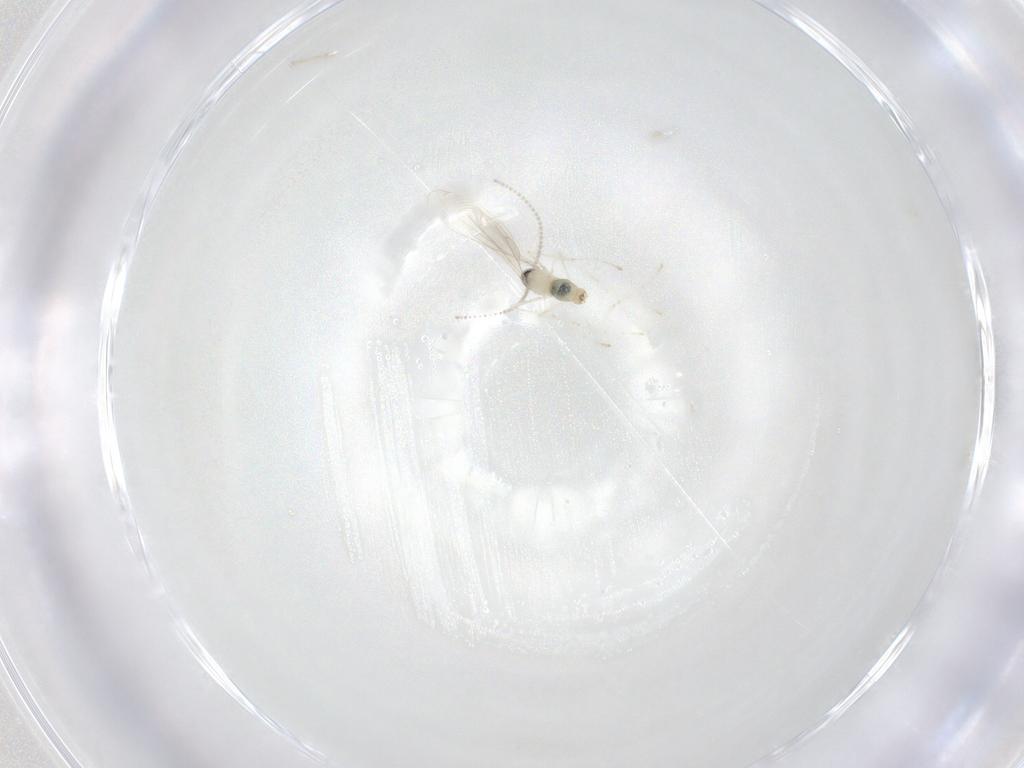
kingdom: Animalia
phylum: Arthropoda
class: Insecta
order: Diptera
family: Cecidomyiidae
